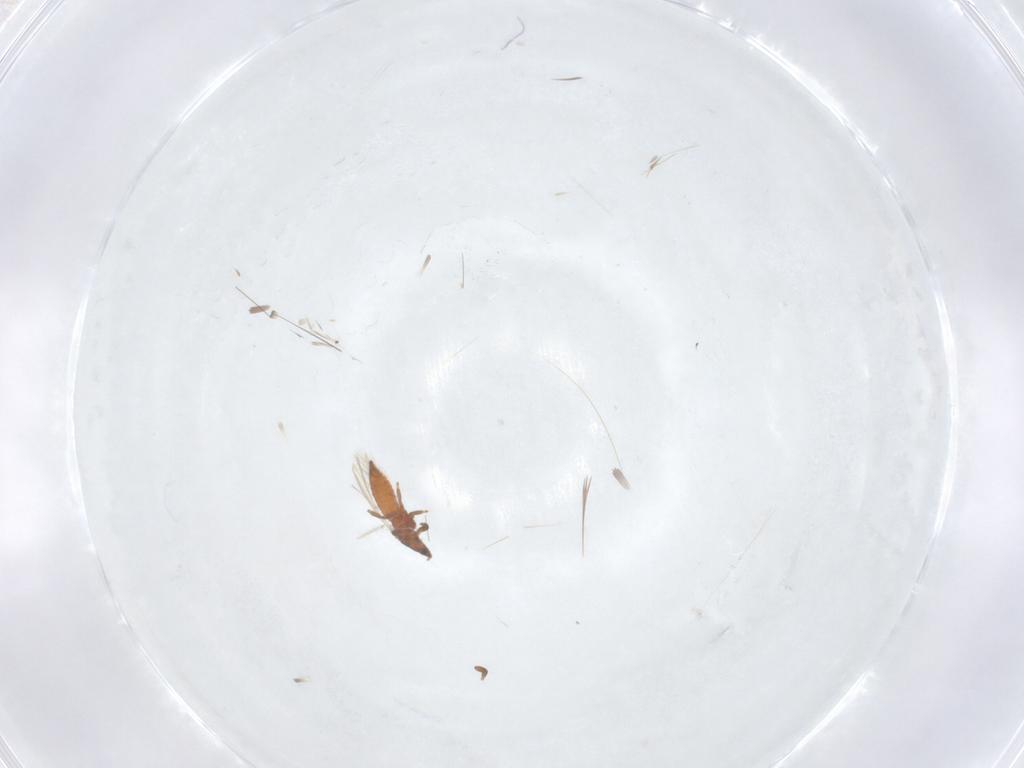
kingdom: Animalia
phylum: Arthropoda
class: Insecta
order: Thysanoptera
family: Thripidae
